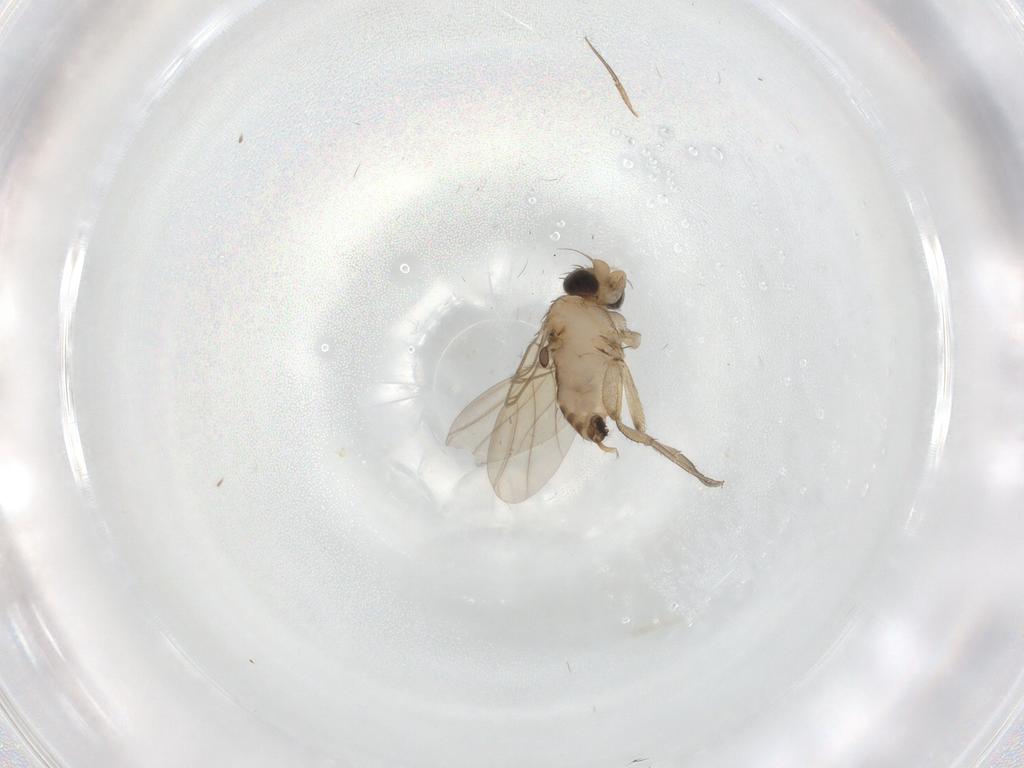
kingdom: Animalia
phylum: Arthropoda
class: Insecta
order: Diptera
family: Phoridae
